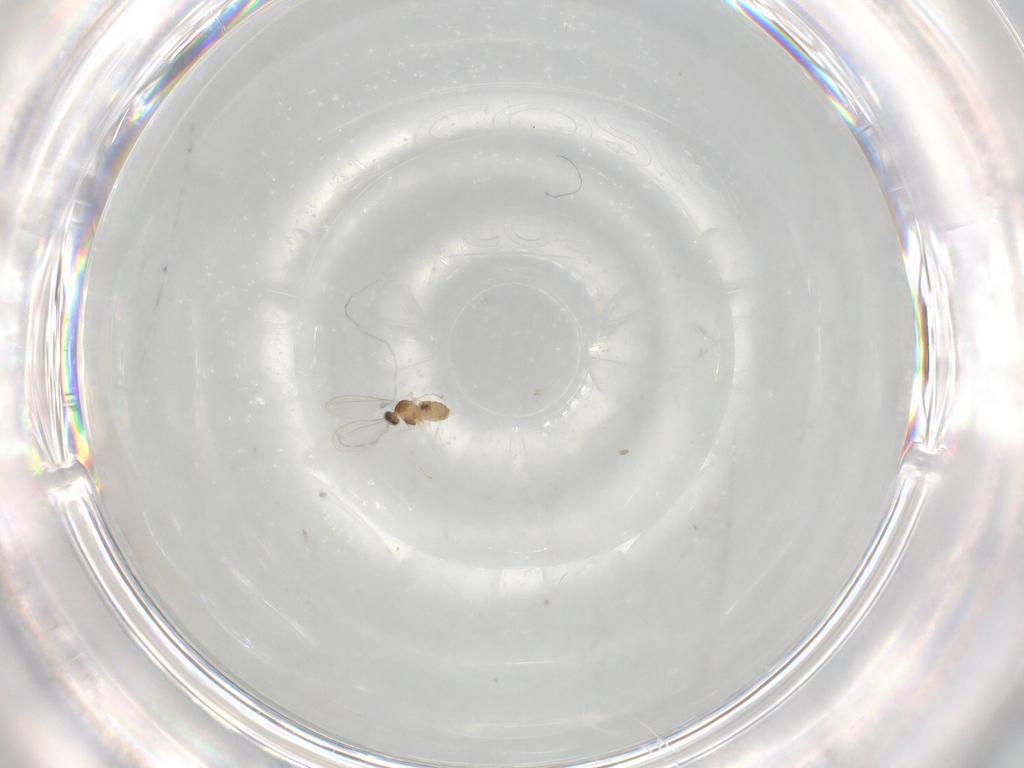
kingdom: Animalia
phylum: Arthropoda
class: Insecta
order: Diptera
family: Cecidomyiidae
